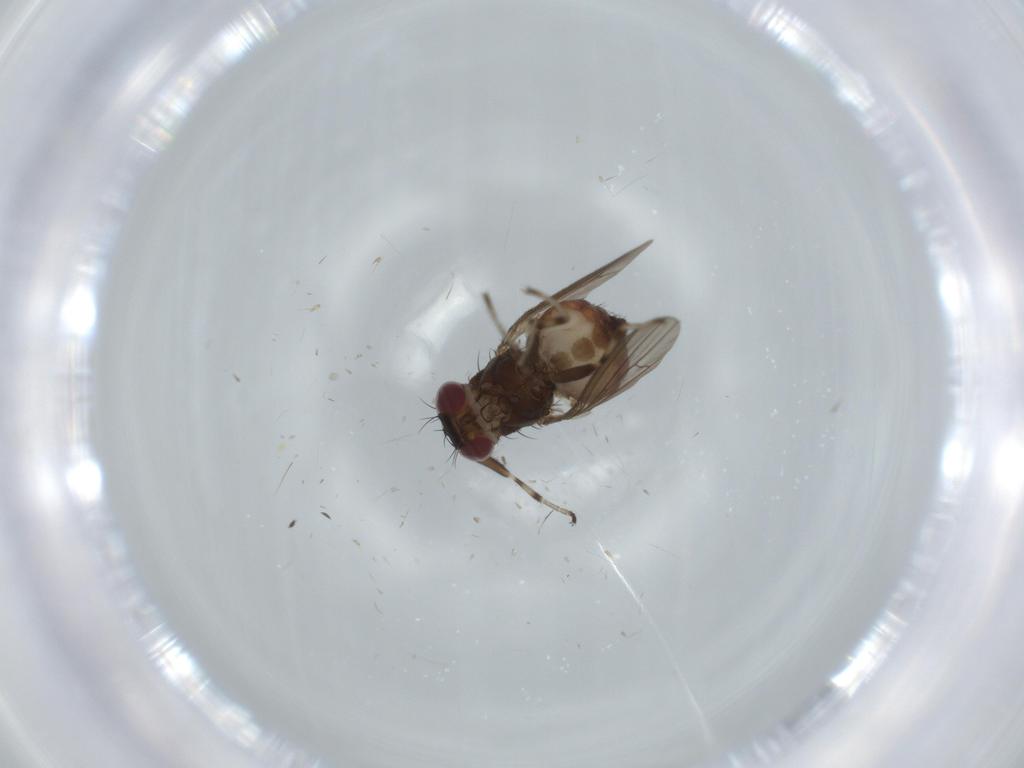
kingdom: Animalia
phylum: Arthropoda
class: Insecta
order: Diptera
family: Heleomyzidae
